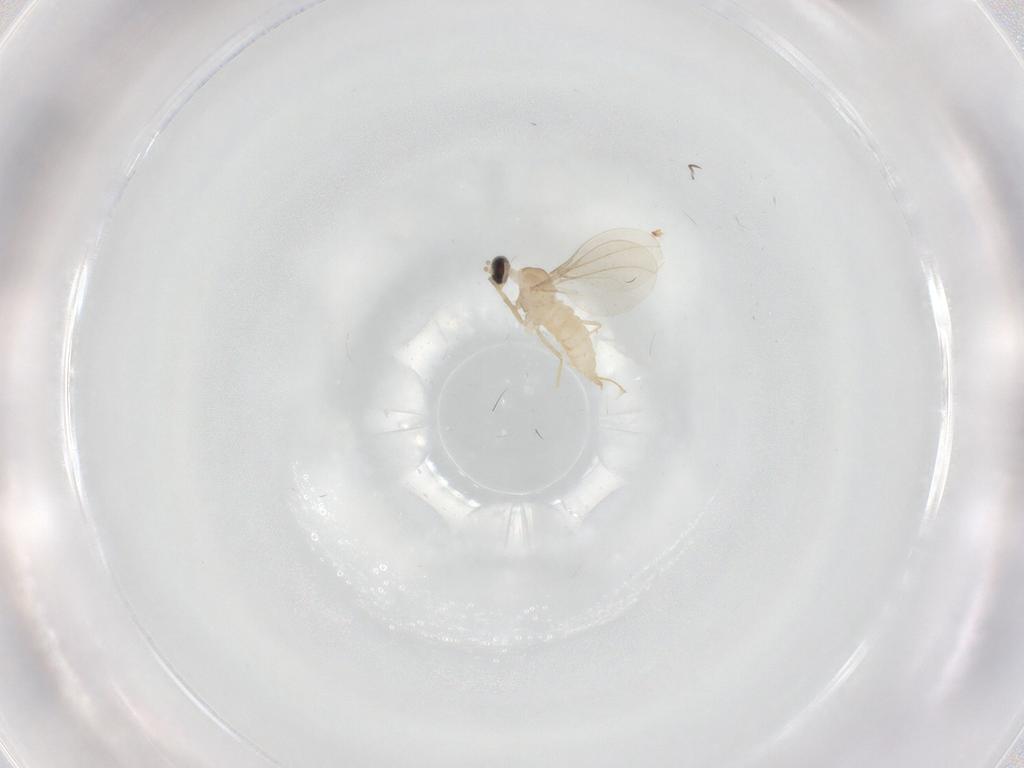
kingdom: Animalia
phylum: Arthropoda
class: Insecta
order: Diptera
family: Cecidomyiidae
